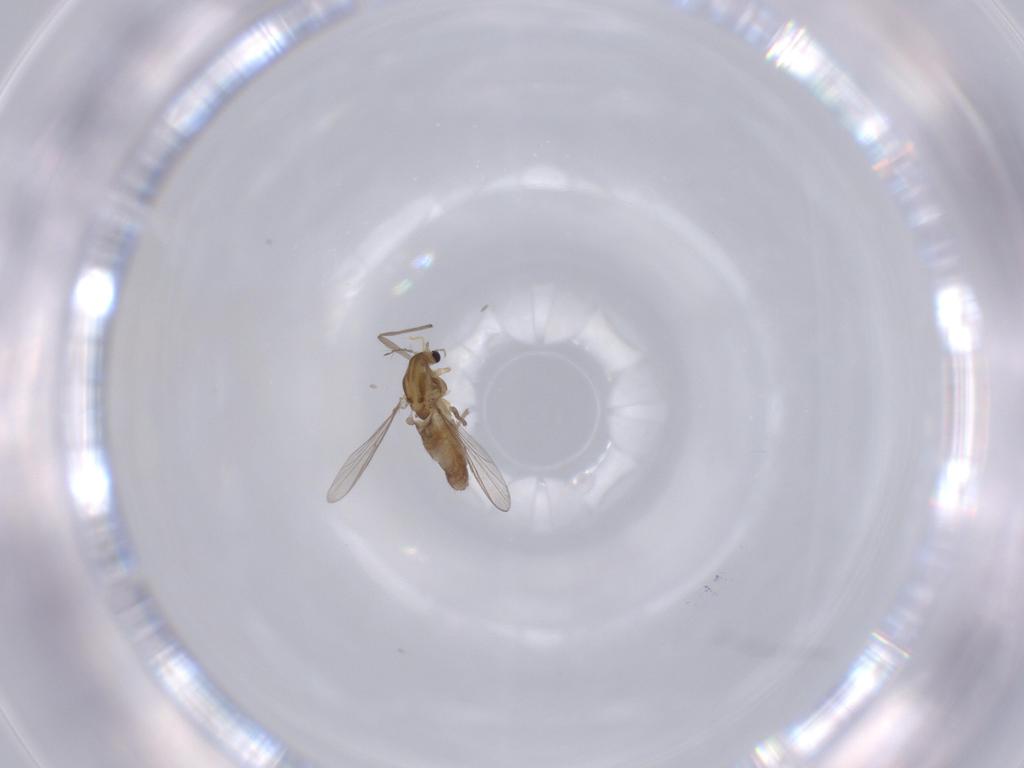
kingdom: Animalia
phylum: Arthropoda
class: Insecta
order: Diptera
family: Chironomidae
